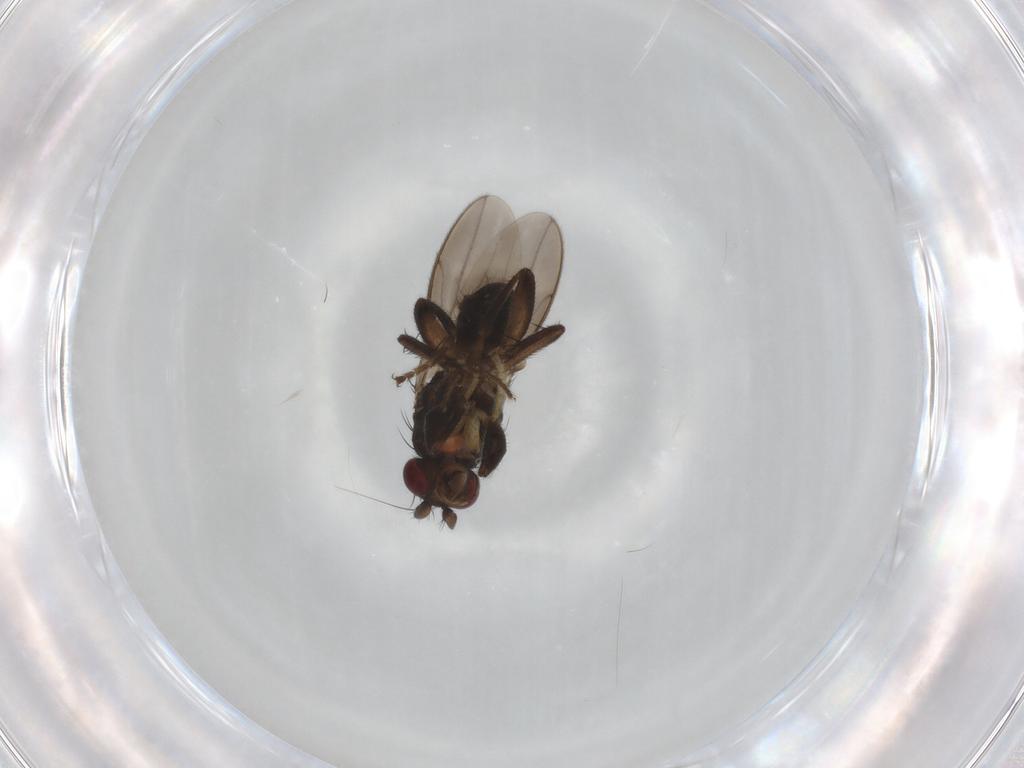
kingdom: Animalia
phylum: Arthropoda
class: Insecta
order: Diptera
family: Sphaeroceridae
